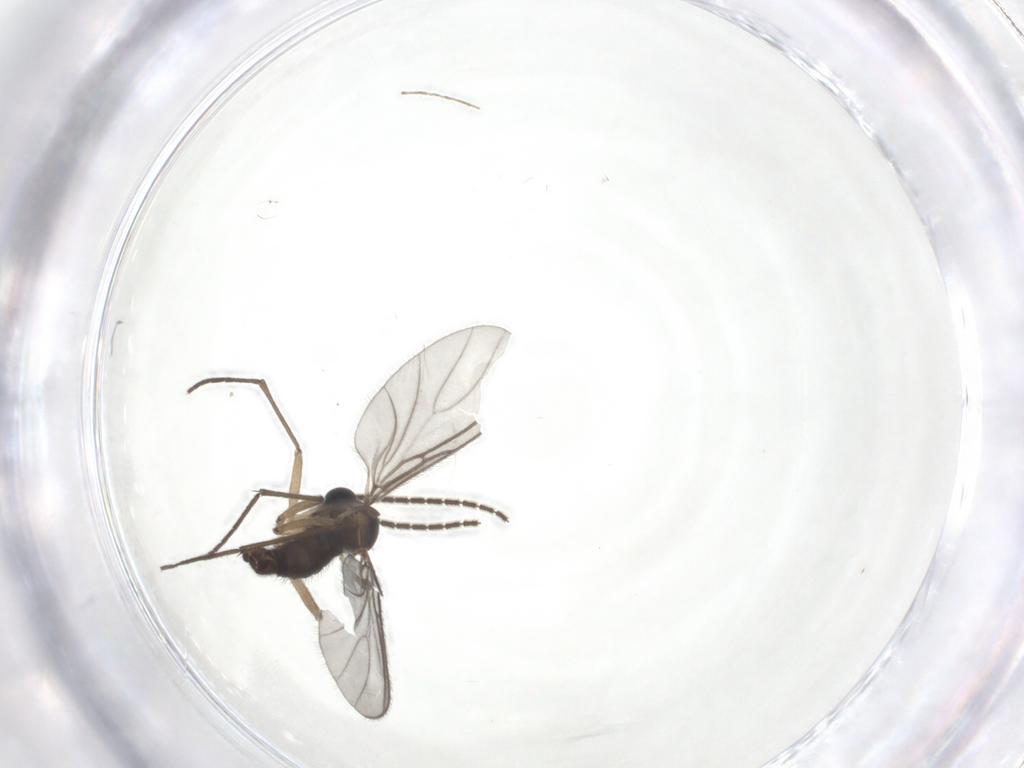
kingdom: Animalia
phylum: Arthropoda
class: Insecta
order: Diptera
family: Sciaridae
